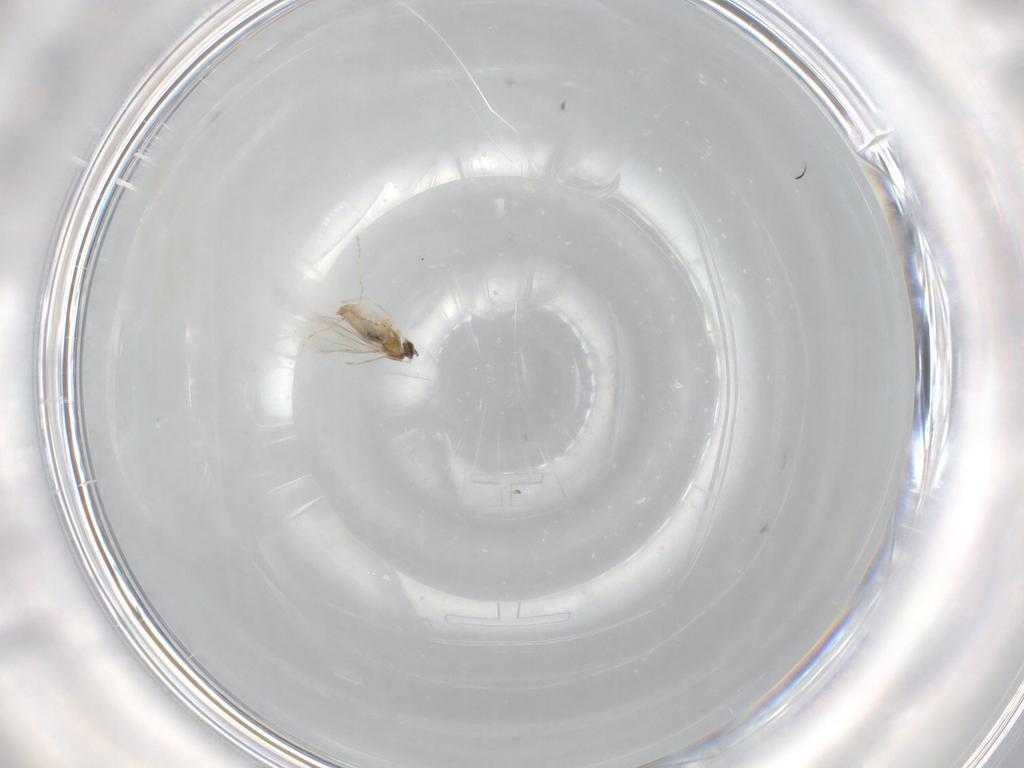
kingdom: Animalia
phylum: Arthropoda
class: Insecta
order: Diptera
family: Cecidomyiidae
